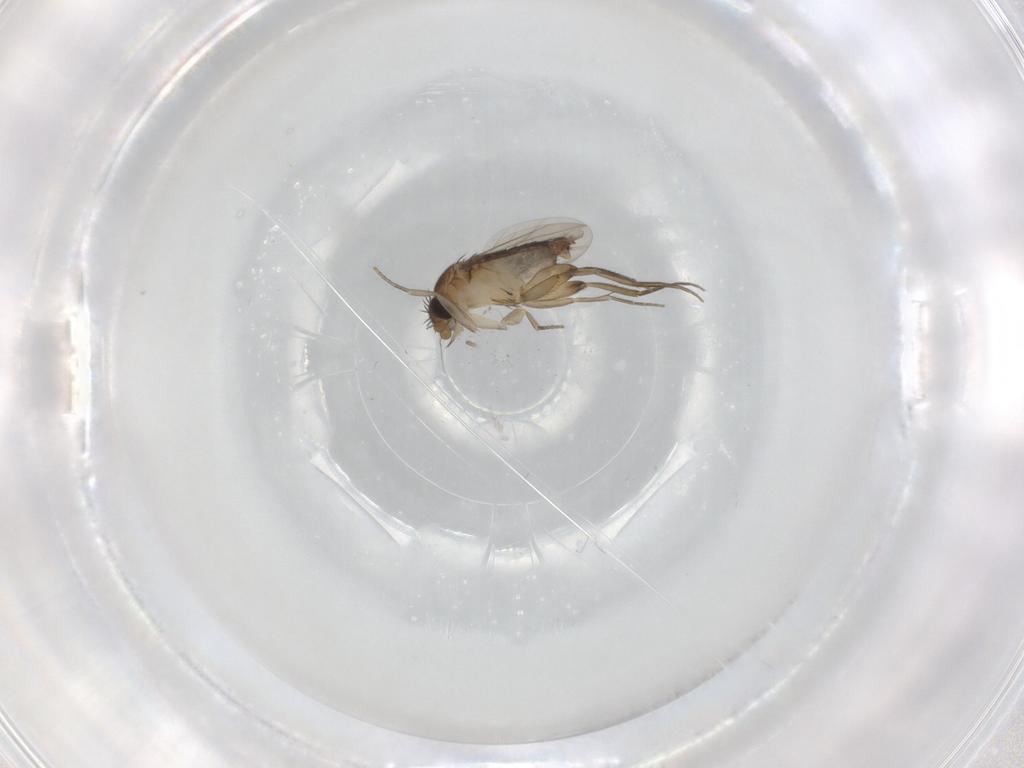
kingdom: Animalia
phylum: Arthropoda
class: Insecta
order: Diptera
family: Phoridae
